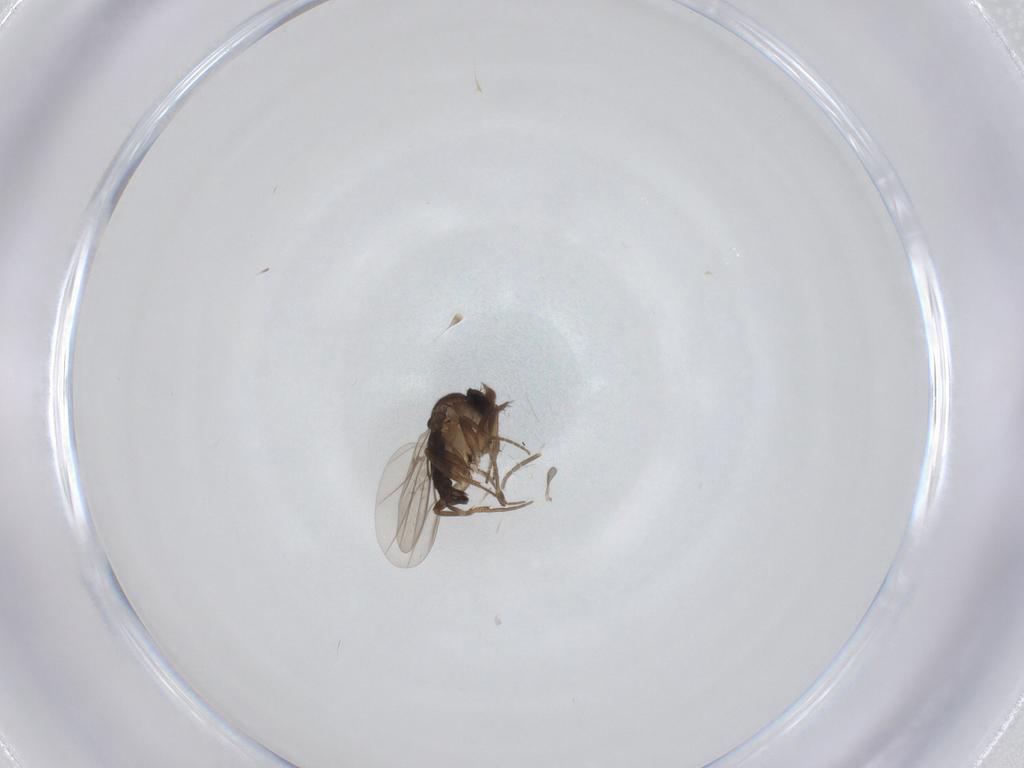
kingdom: Animalia
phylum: Arthropoda
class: Insecta
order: Diptera
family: Phoridae
